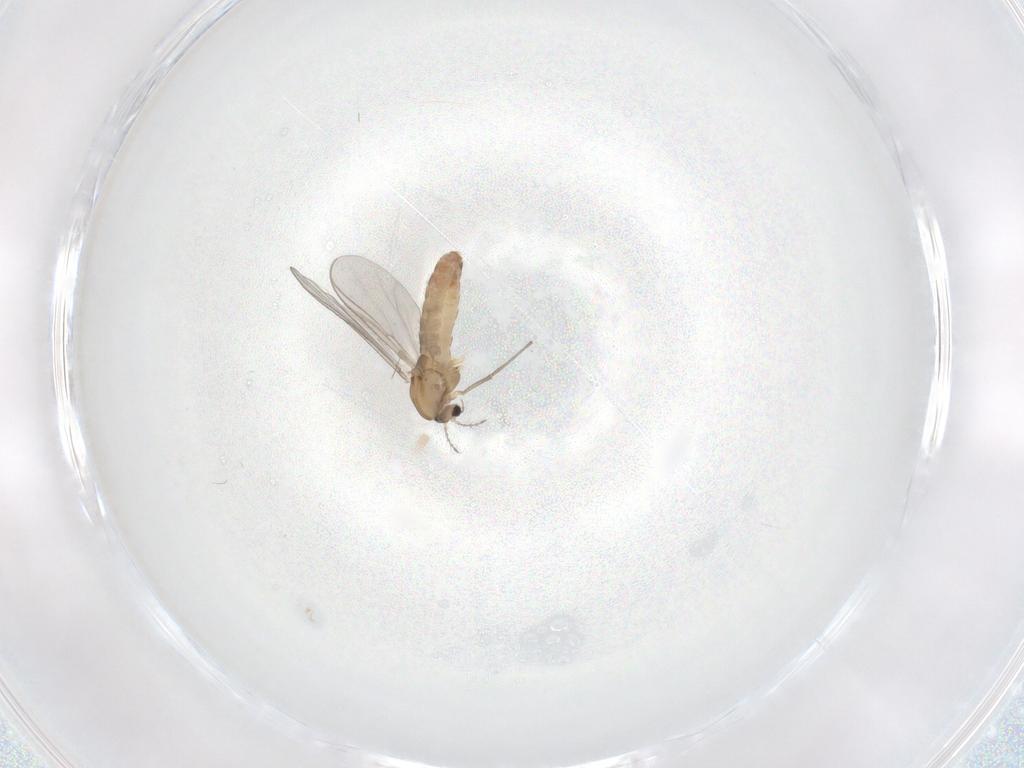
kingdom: Animalia
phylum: Arthropoda
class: Insecta
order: Diptera
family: Chironomidae
